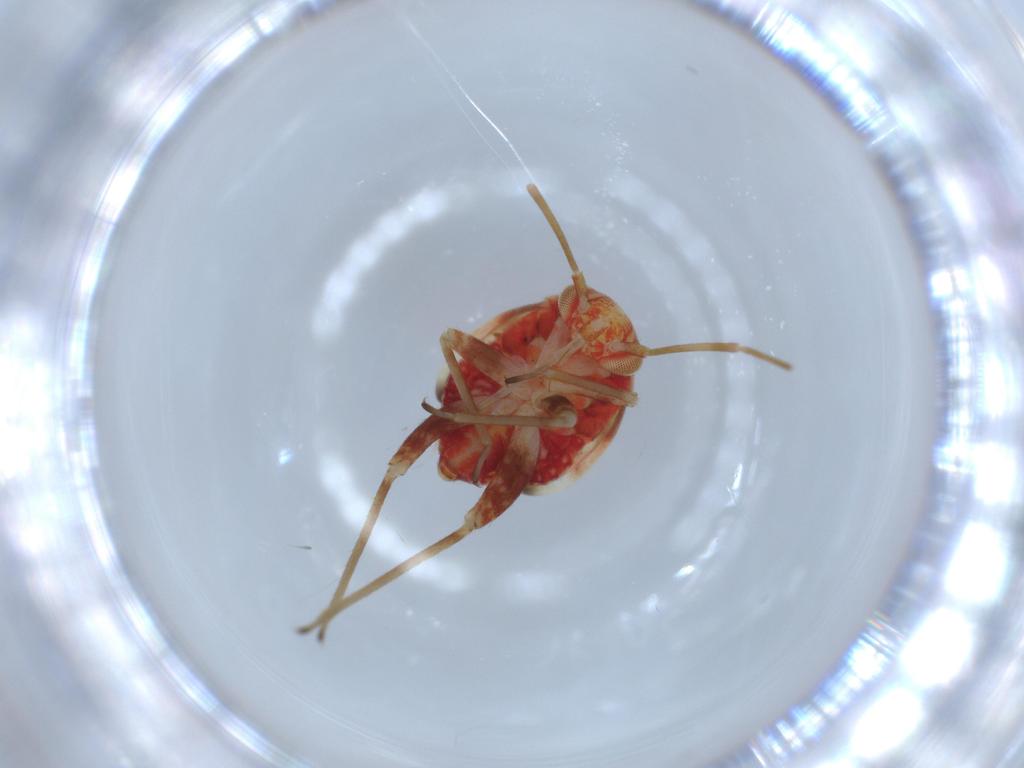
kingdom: Animalia
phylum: Arthropoda
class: Insecta
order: Hemiptera
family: Miridae
